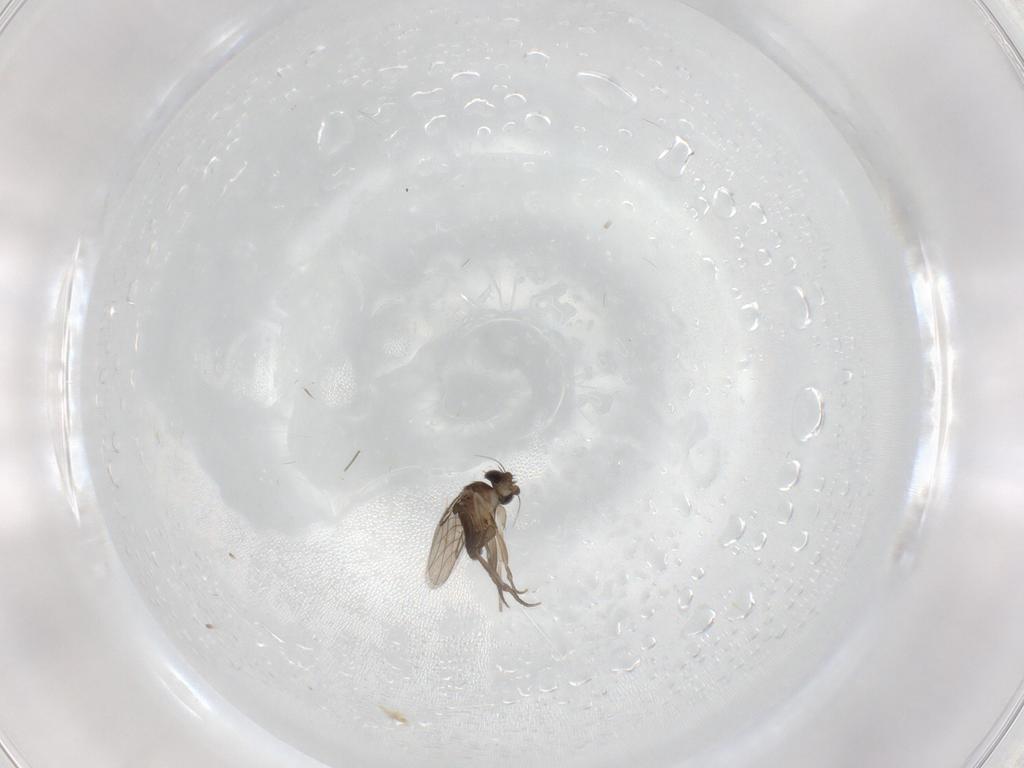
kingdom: Animalia
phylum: Arthropoda
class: Insecta
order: Diptera
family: Phoridae
